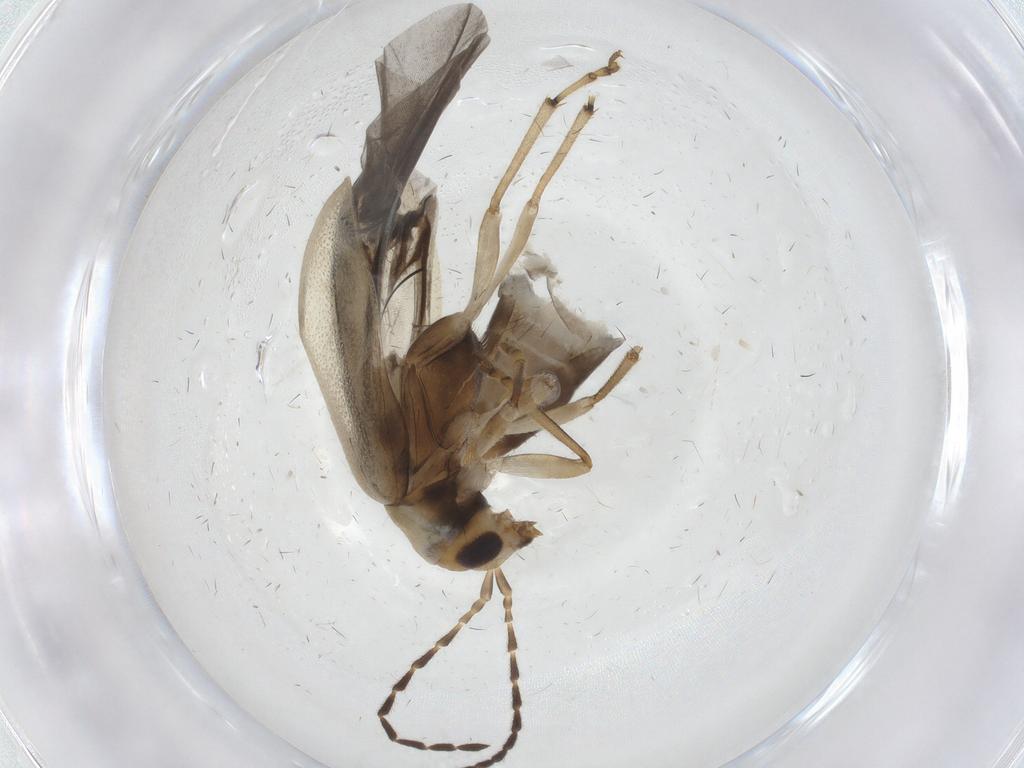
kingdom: Animalia
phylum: Arthropoda
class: Insecta
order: Coleoptera
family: Chrysomelidae
